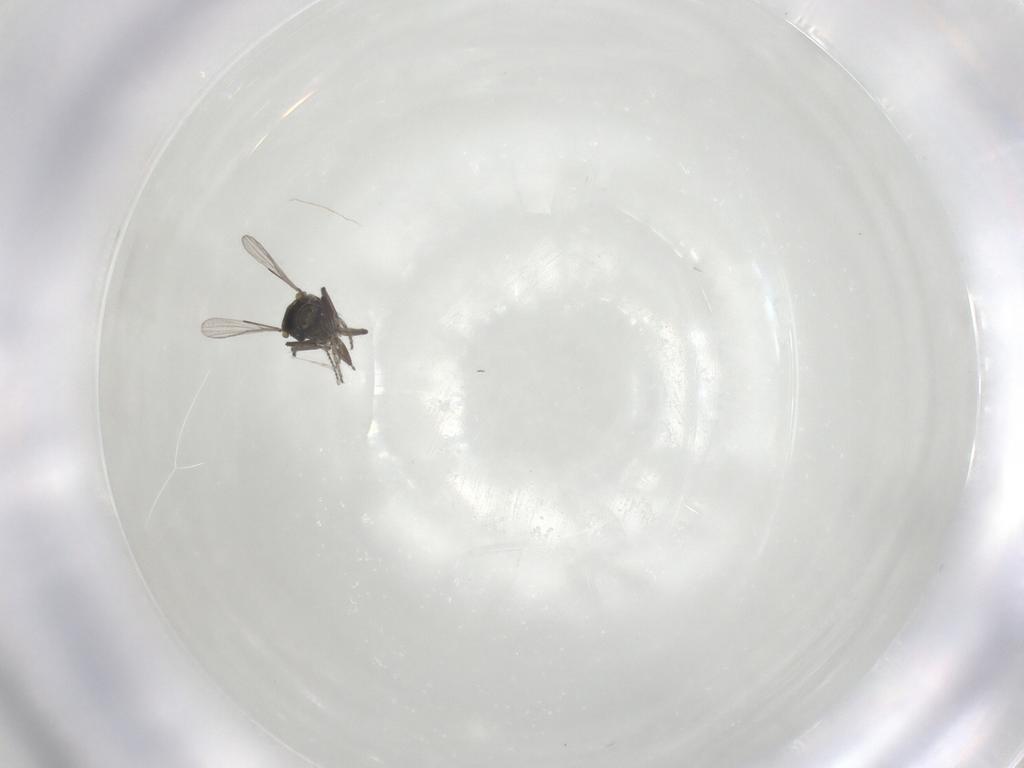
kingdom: Animalia
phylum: Arthropoda
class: Insecta
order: Diptera
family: Ceratopogonidae
